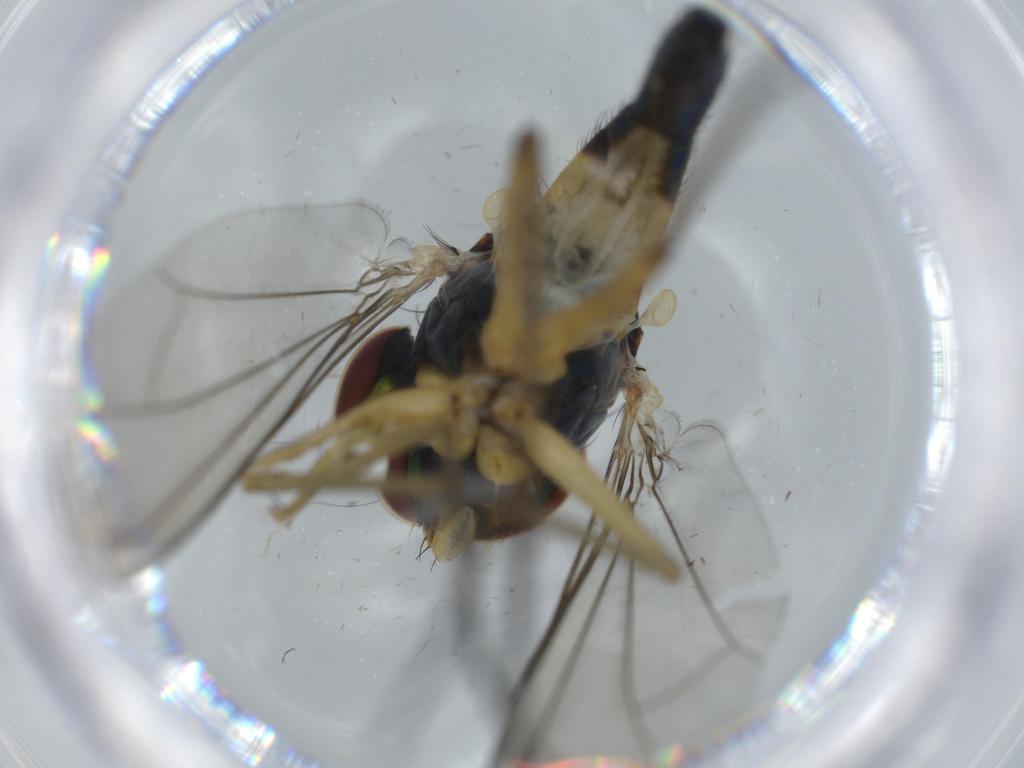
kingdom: Animalia
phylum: Arthropoda
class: Insecta
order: Diptera
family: Dolichopodidae
